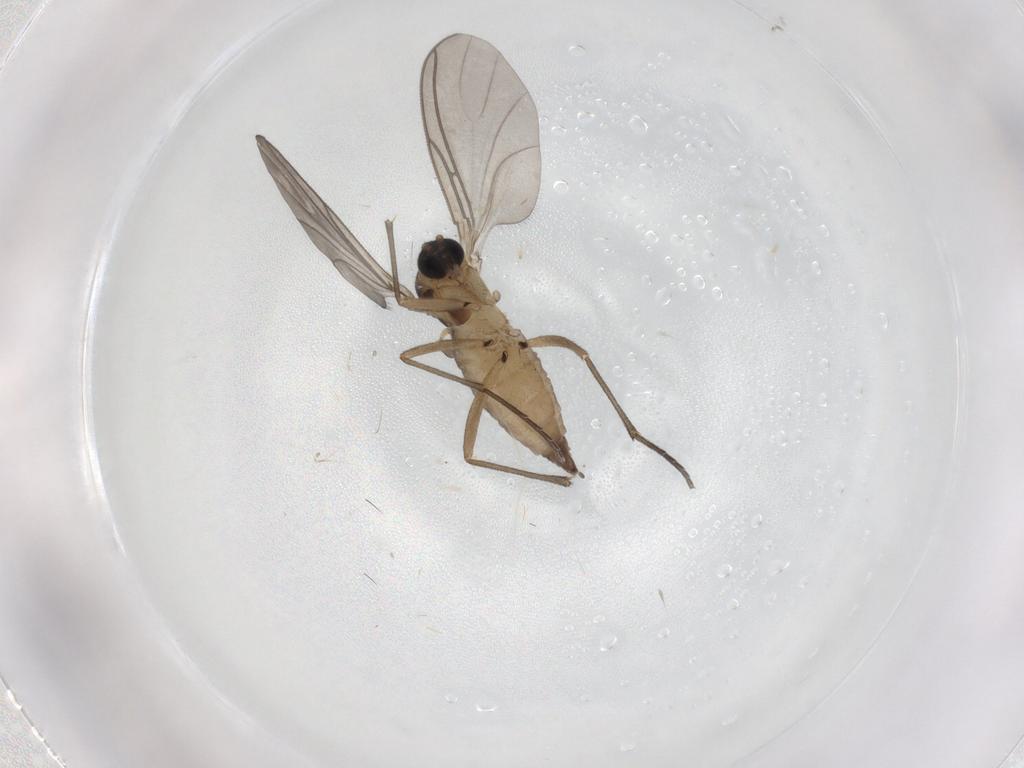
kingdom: Animalia
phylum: Arthropoda
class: Insecta
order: Diptera
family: Sciaridae
